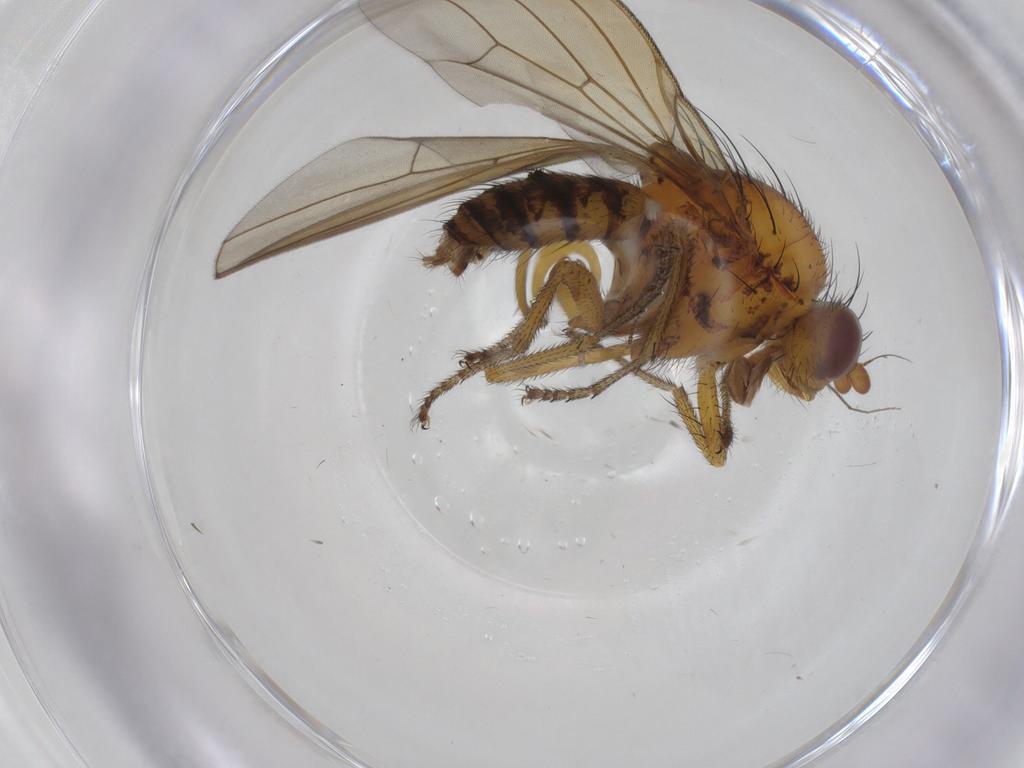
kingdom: Animalia
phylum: Arthropoda
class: Insecta
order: Diptera
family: Lauxaniidae
